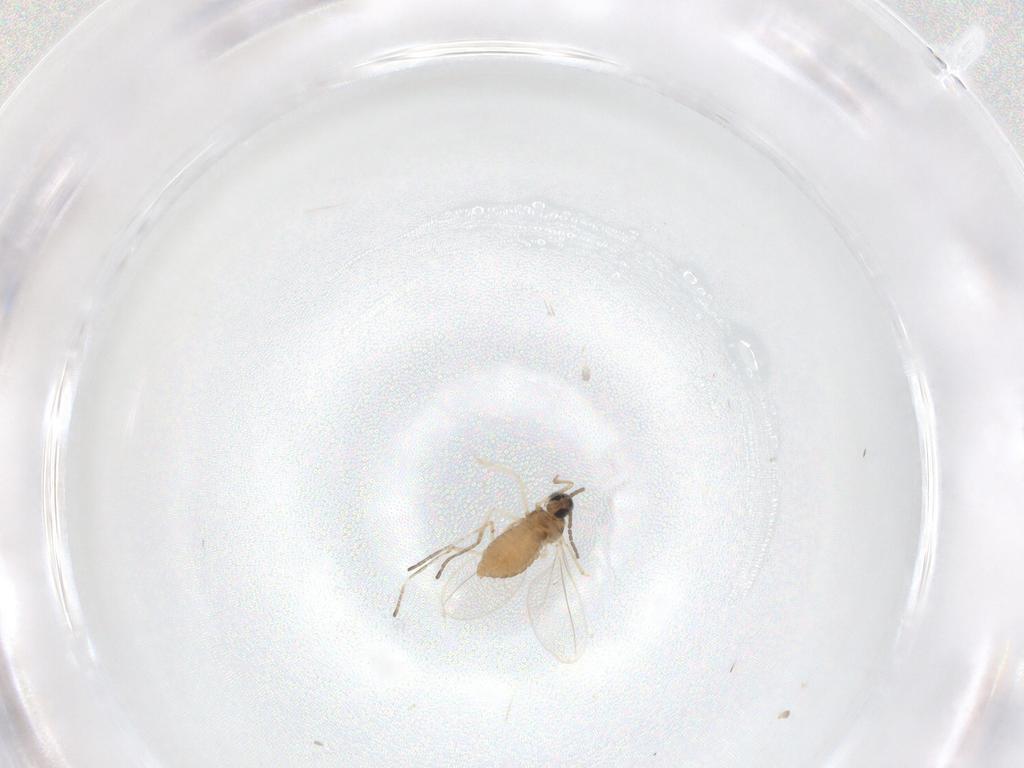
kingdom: Animalia
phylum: Arthropoda
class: Insecta
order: Diptera
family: Cecidomyiidae
